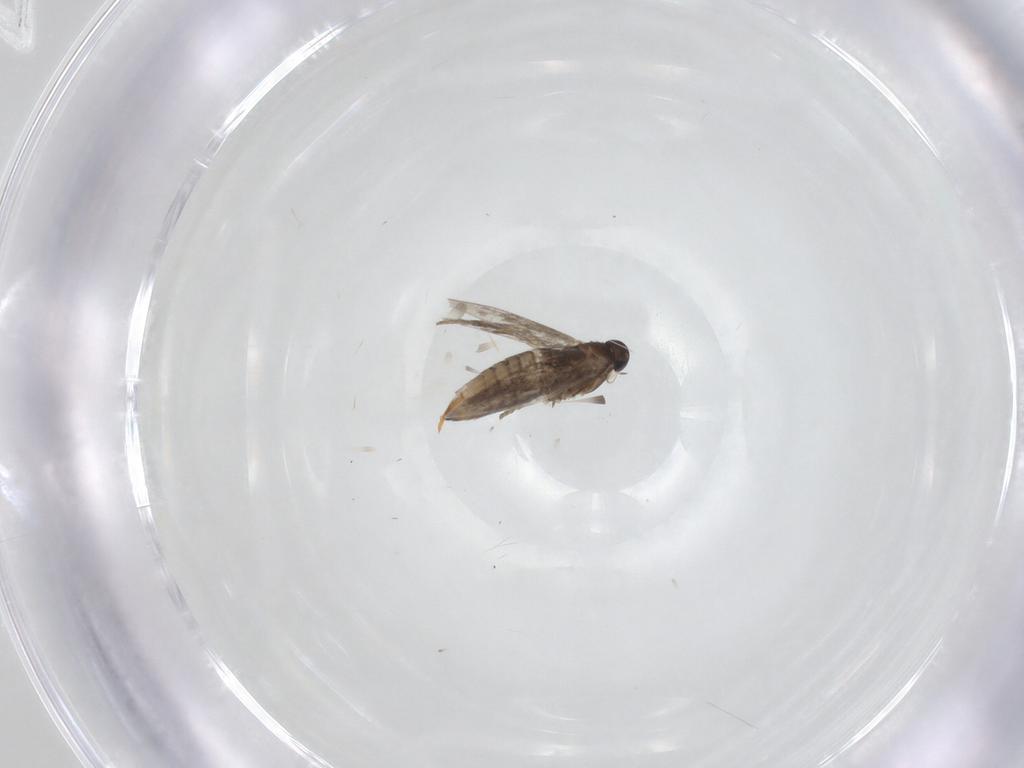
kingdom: Animalia
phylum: Arthropoda
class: Insecta
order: Lepidoptera
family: Heliozelidae
